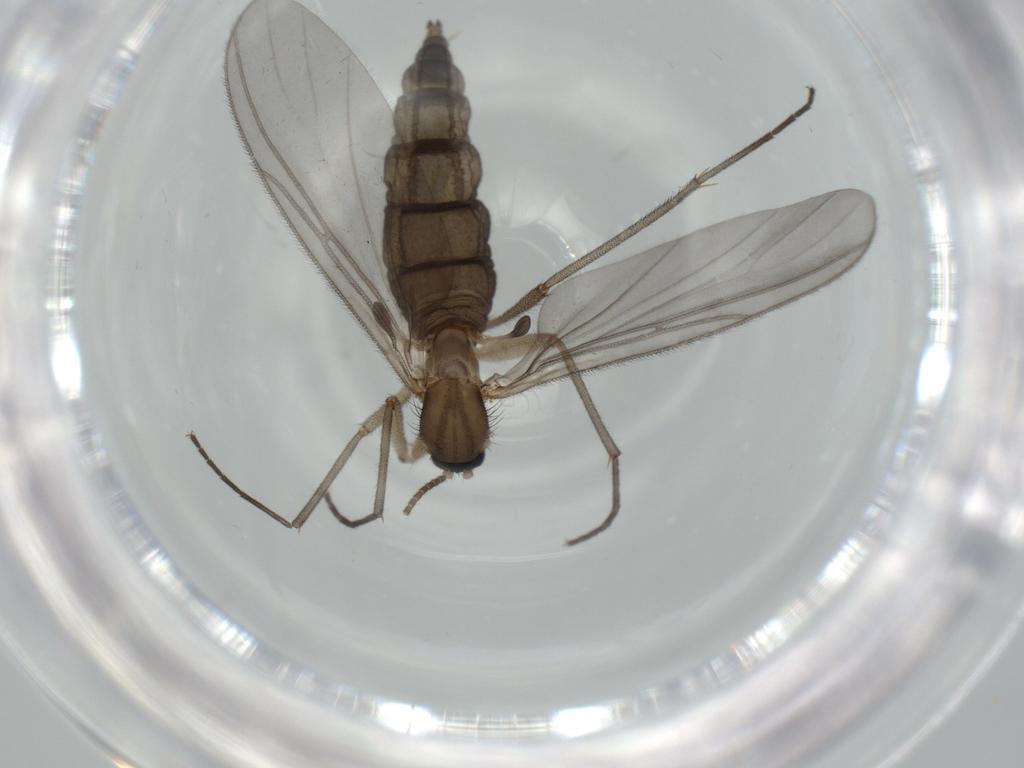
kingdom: Animalia
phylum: Arthropoda
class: Insecta
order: Diptera
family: Sciaridae
